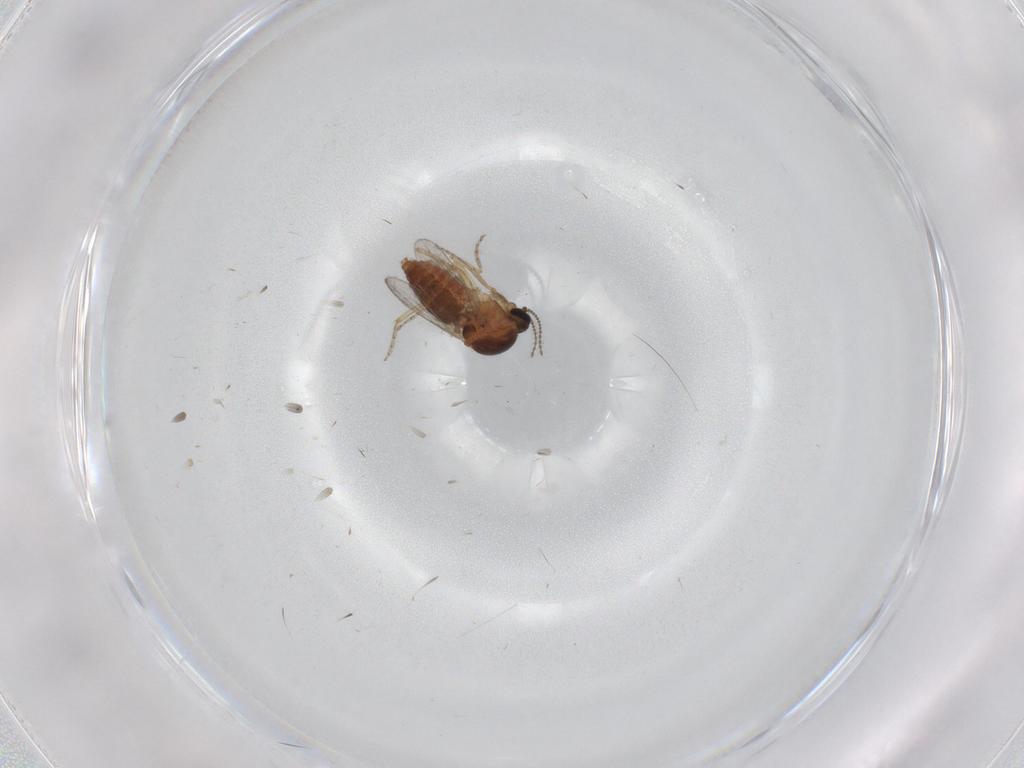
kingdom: Animalia
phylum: Arthropoda
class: Insecta
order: Diptera
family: Ceratopogonidae
